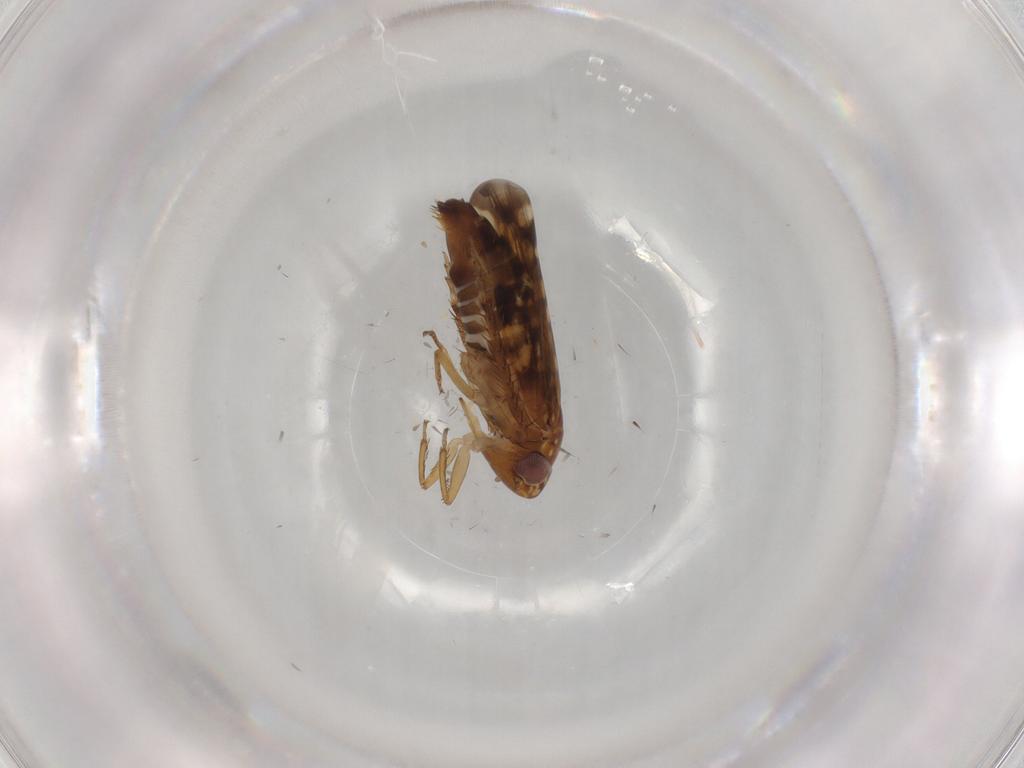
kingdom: Animalia
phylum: Arthropoda
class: Insecta
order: Hemiptera
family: Cicadellidae
